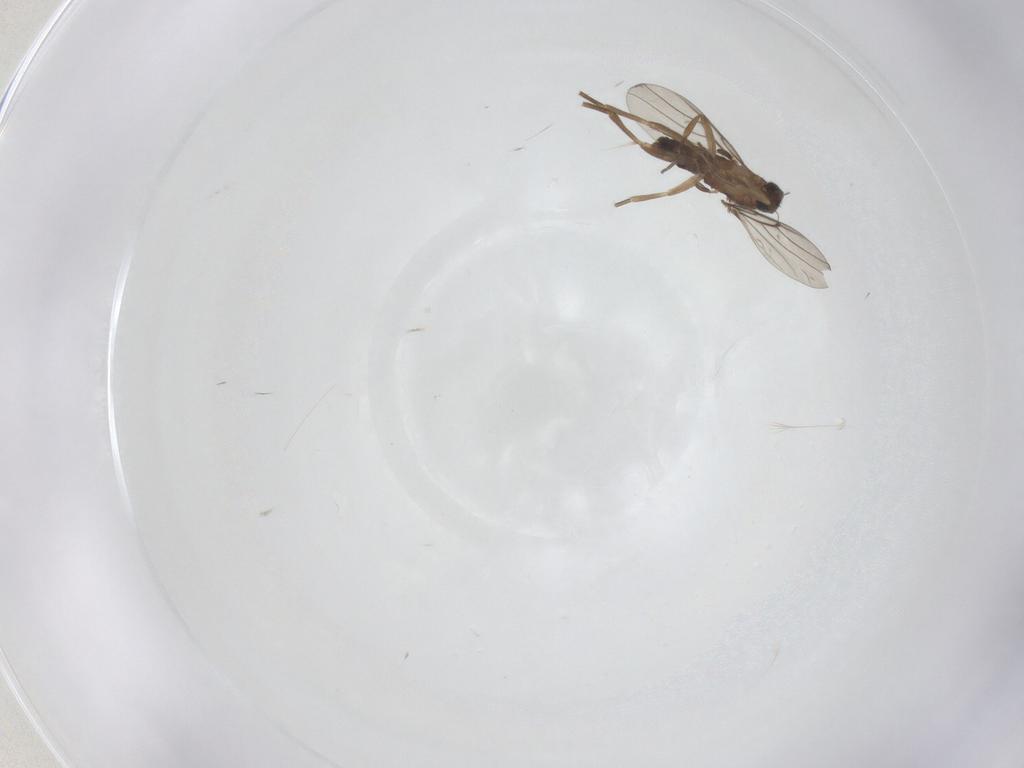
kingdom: Animalia
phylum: Arthropoda
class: Insecta
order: Diptera
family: Phoridae
